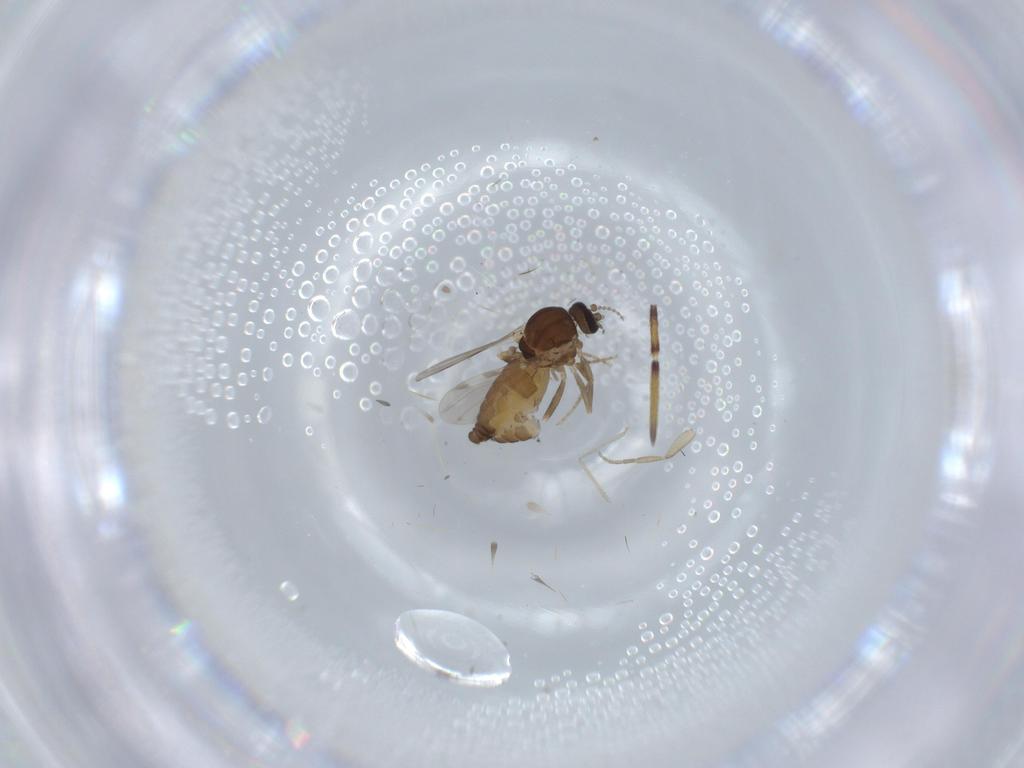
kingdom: Animalia
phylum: Arthropoda
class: Insecta
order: Diptera
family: Ceratopogonidae
